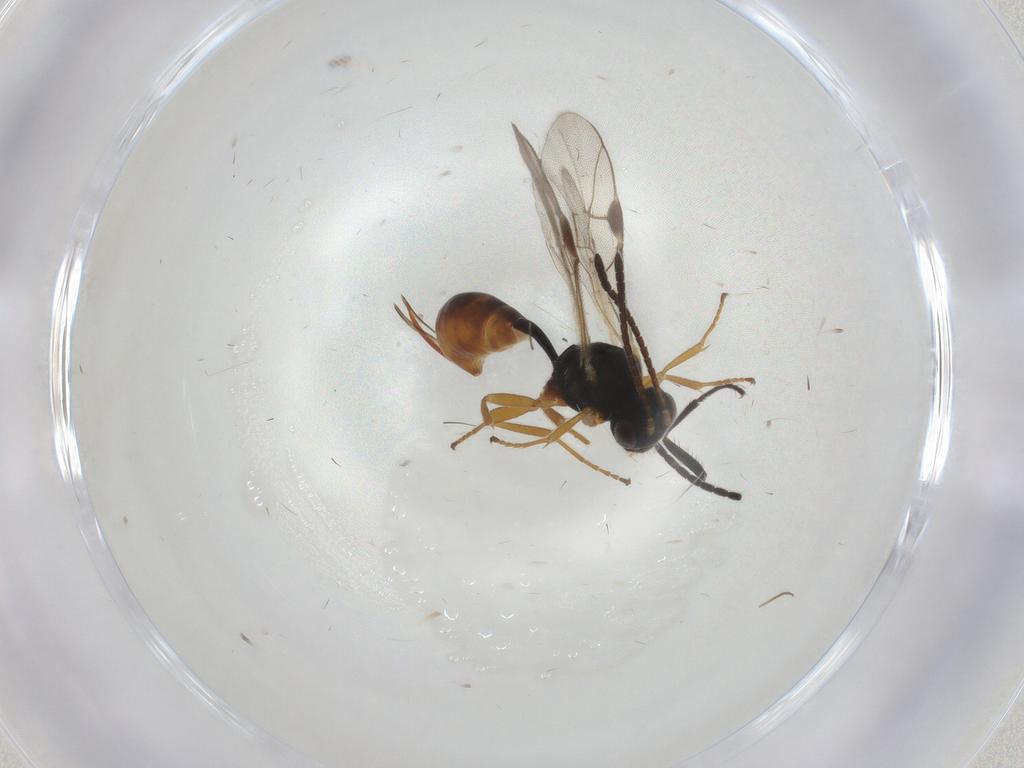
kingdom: Animalia
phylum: Arthropoda
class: Insecta
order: Hymenoptera
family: Ichneumonidae
